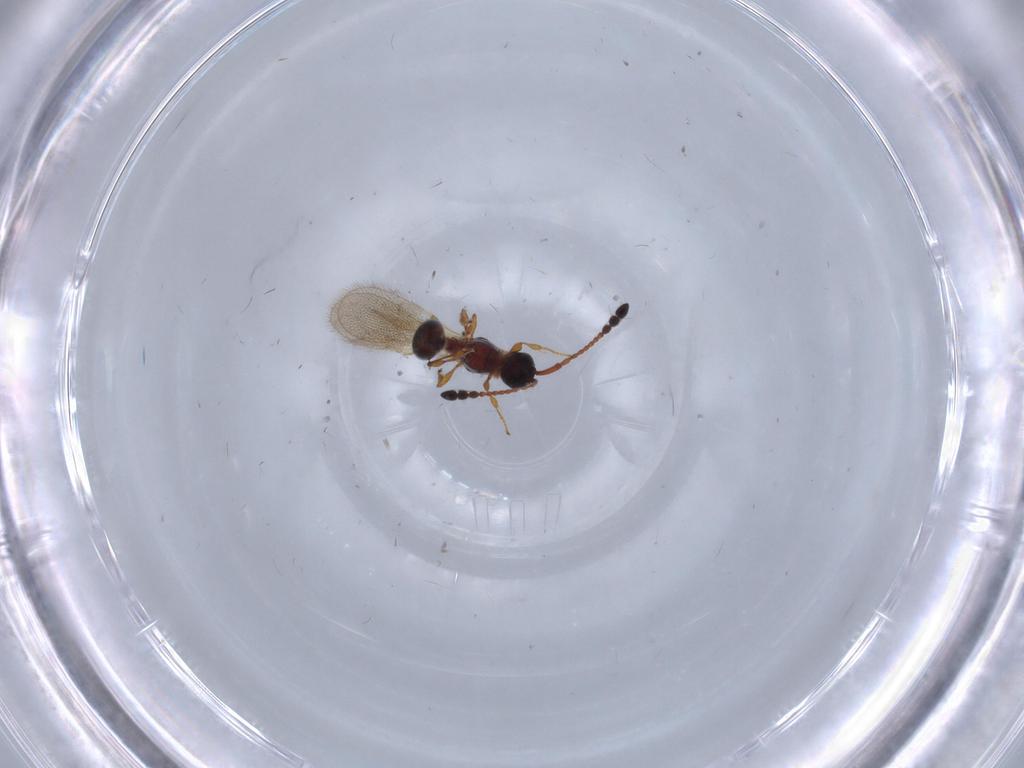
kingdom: Animalia
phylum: Arthropoda
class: Insecta
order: Hymenoptera
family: Diapriidae
